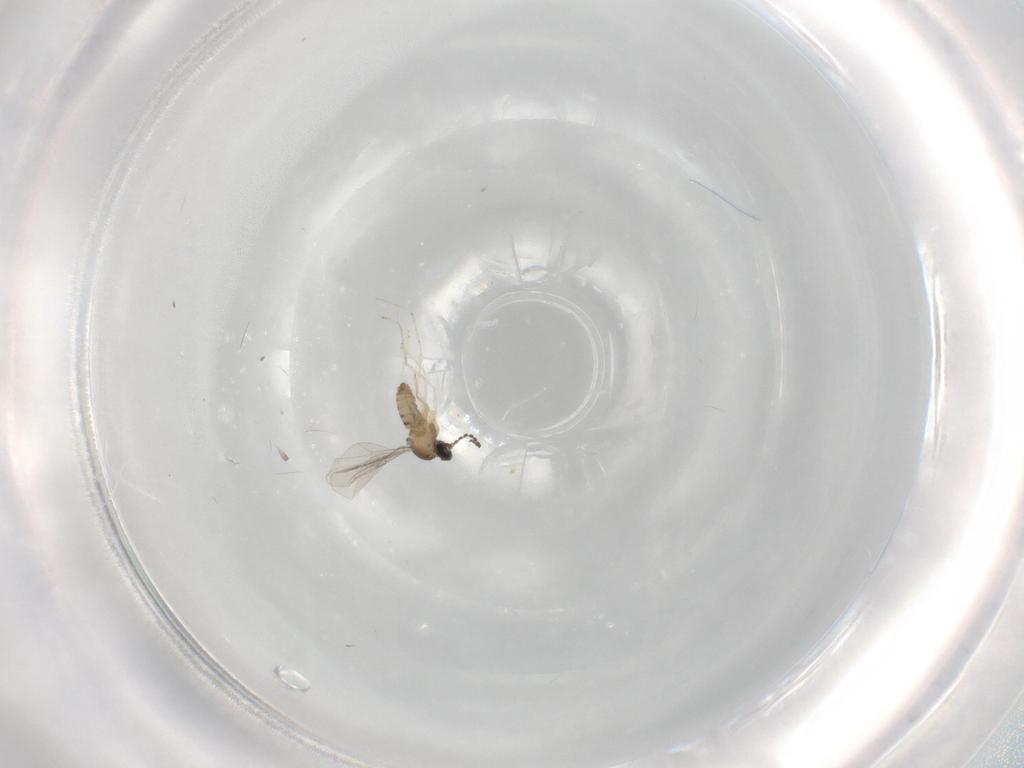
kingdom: Animalia
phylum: Arthropoda
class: Insecta
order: Diptera
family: Cecidomyiidae
